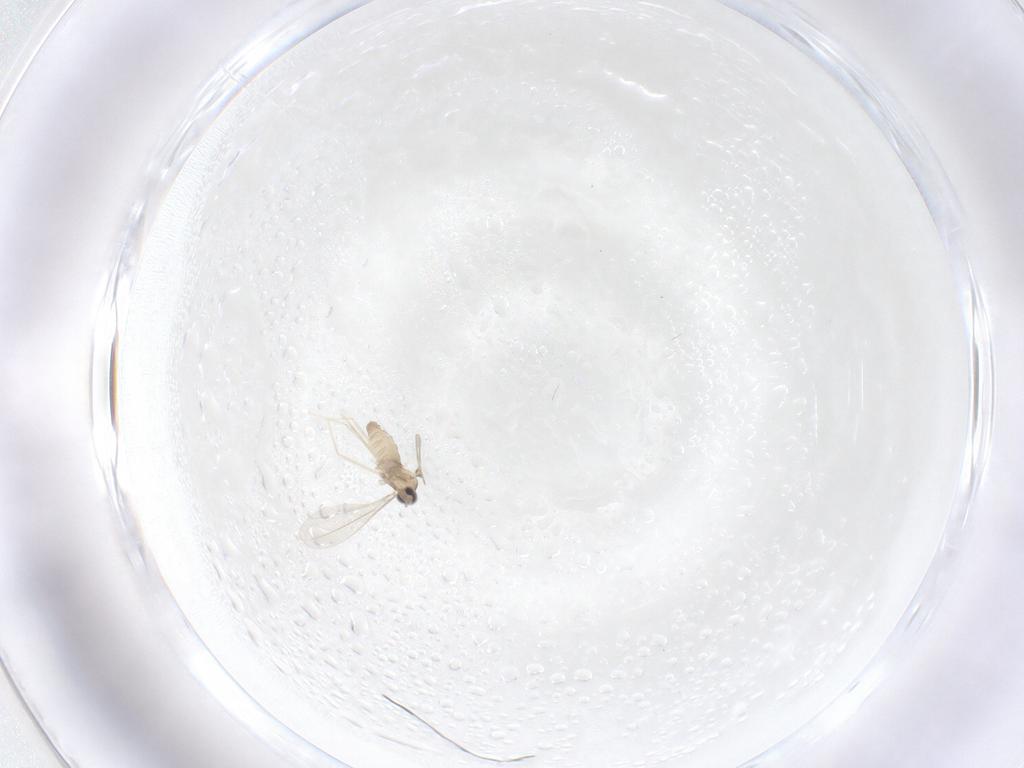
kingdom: Animalia
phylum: Arthropoda
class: Insecta
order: Diptera
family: Cecidomyiidae
